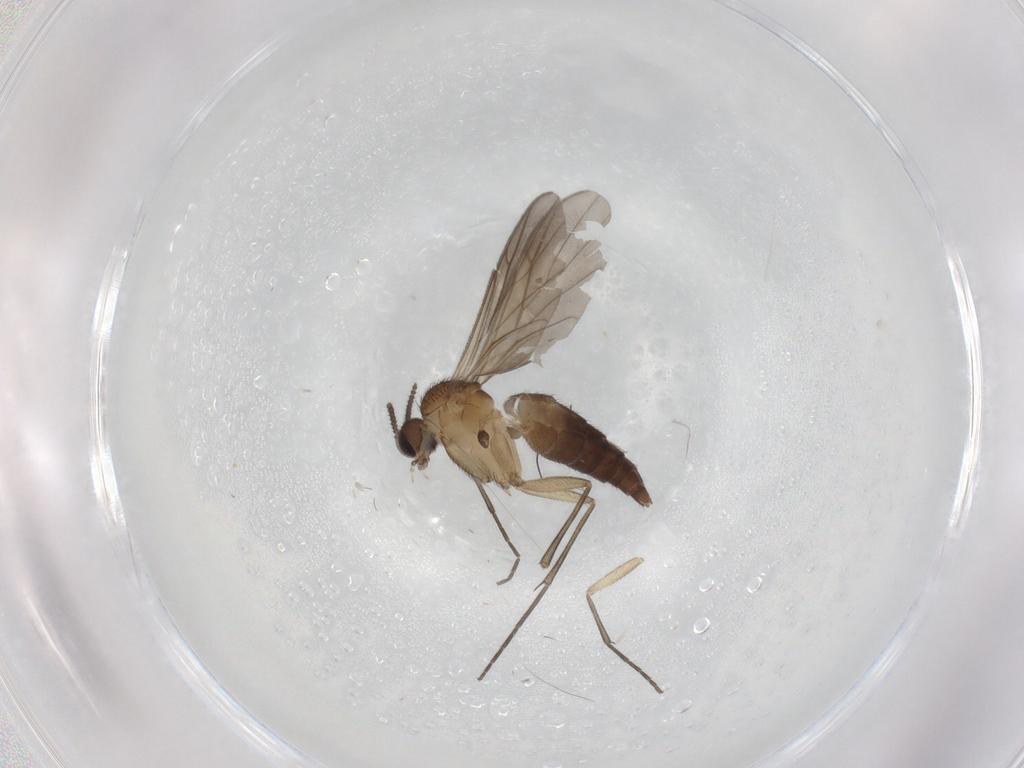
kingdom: Animalia
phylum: Arthropoda
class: Insecta
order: Diptera
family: Keroplatidae
